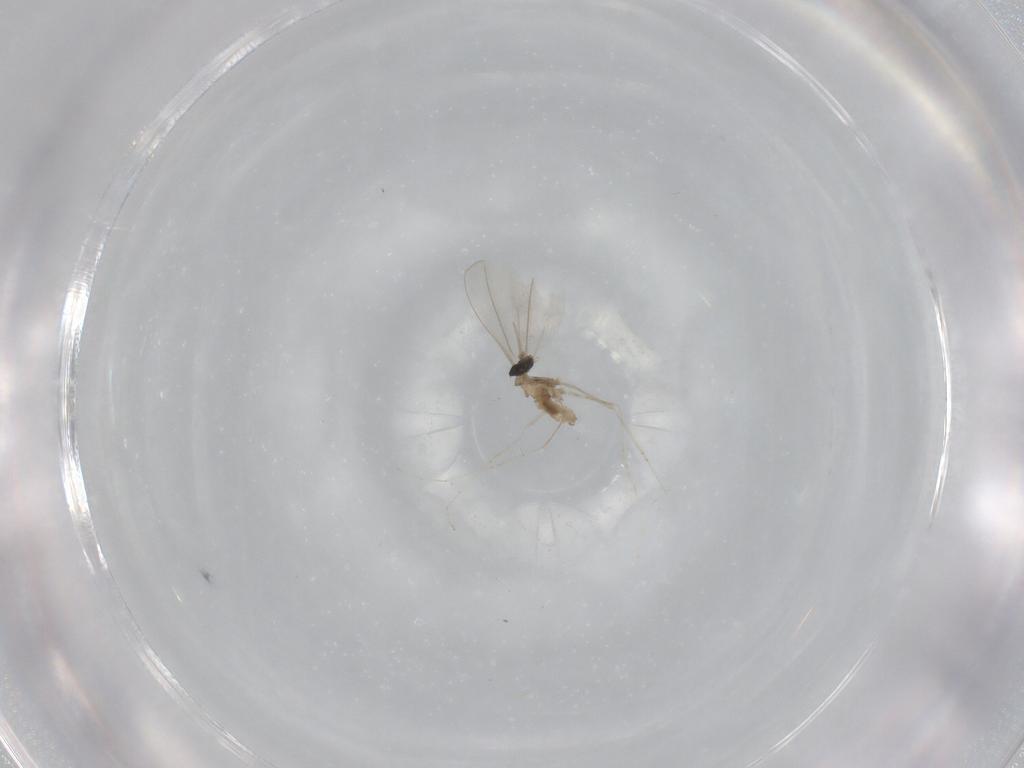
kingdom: Animalia
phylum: Arthropoda
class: Insecta
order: Diptera
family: Cecidomyiidae
